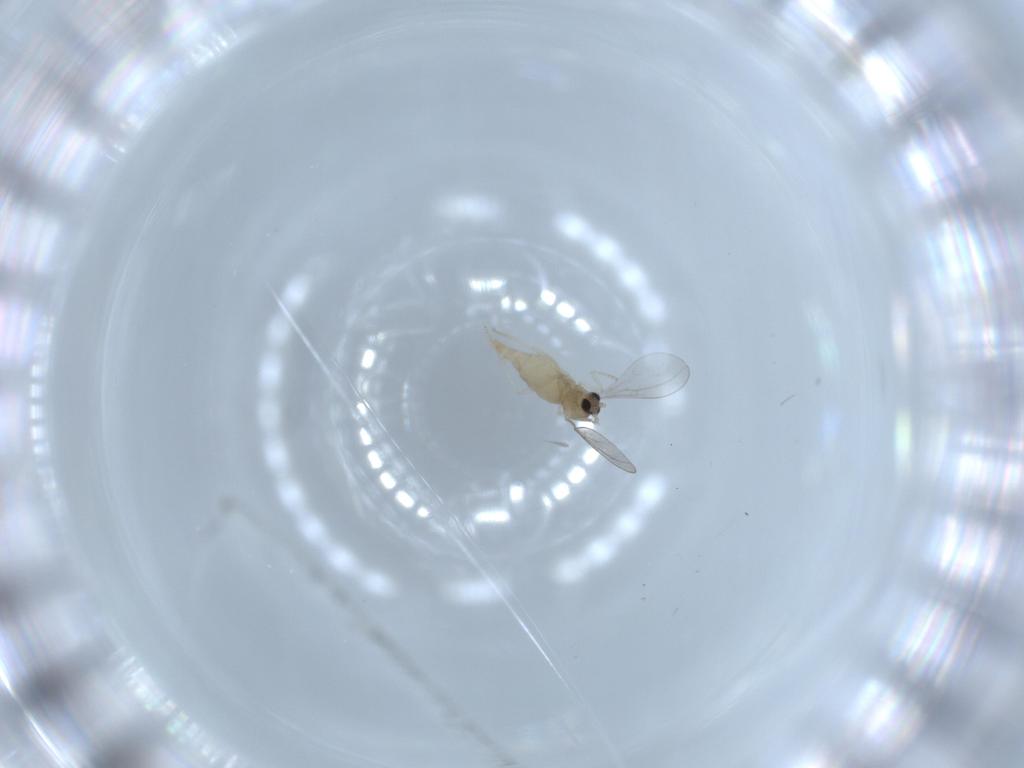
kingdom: Animalia
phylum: Arthropoda
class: Insecta
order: Diptera
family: Cecidomyiidae
